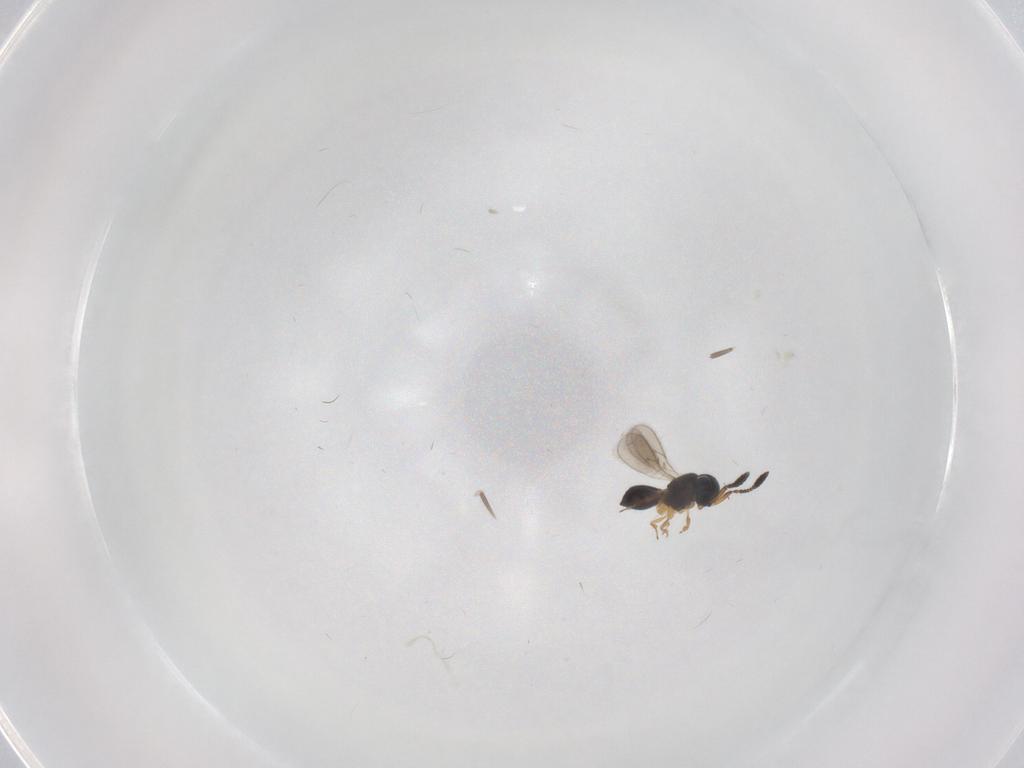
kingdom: Animalia
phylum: Arthropoda
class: Insecta
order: Hymenoptera
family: Scelionidae
